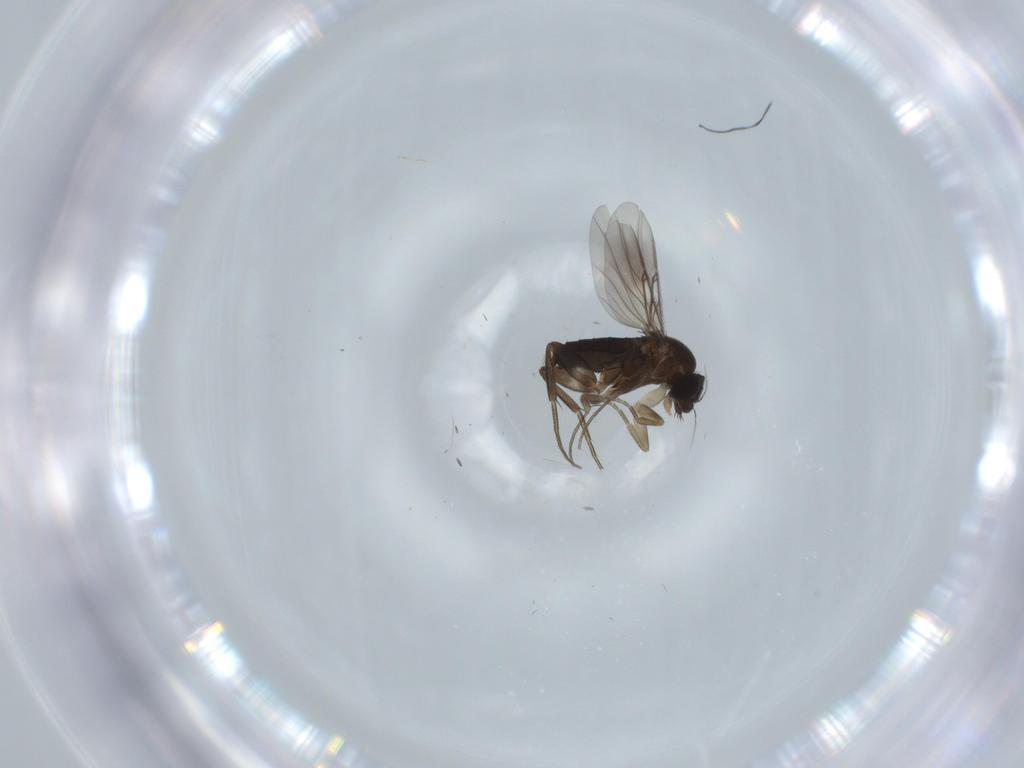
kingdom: Animalia
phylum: Arthropoda
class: Insecta
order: Diptera
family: Phoridae
